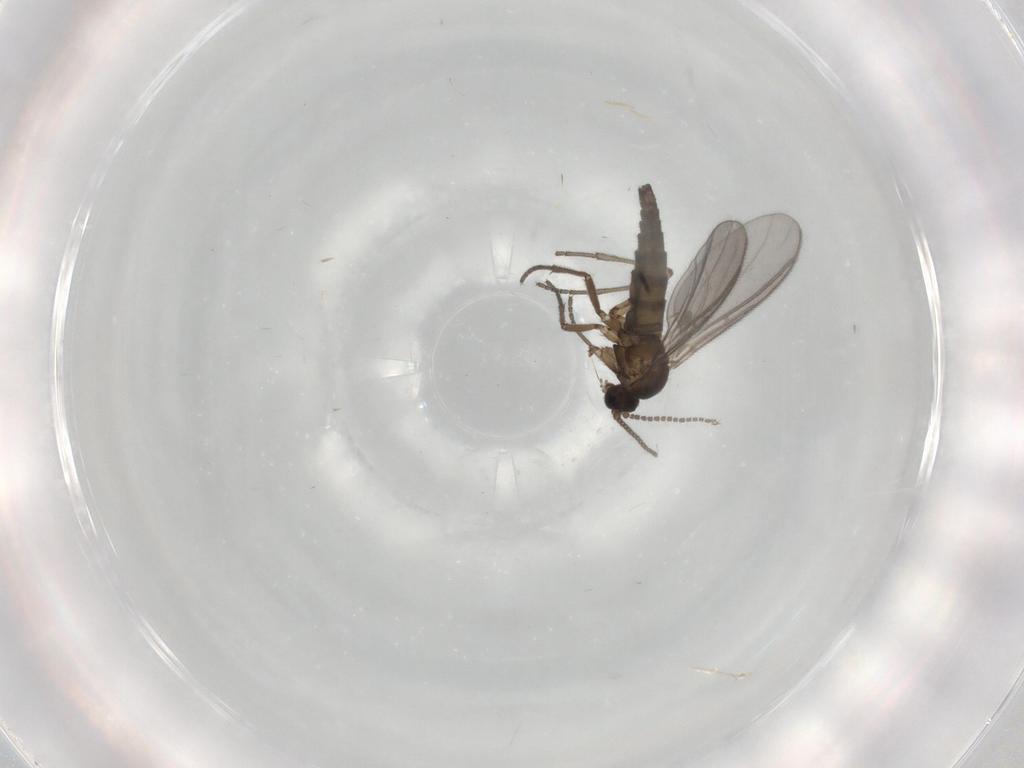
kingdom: Animalia
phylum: Arthropoda
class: Insecta
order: Diptera
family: Sciaridae
